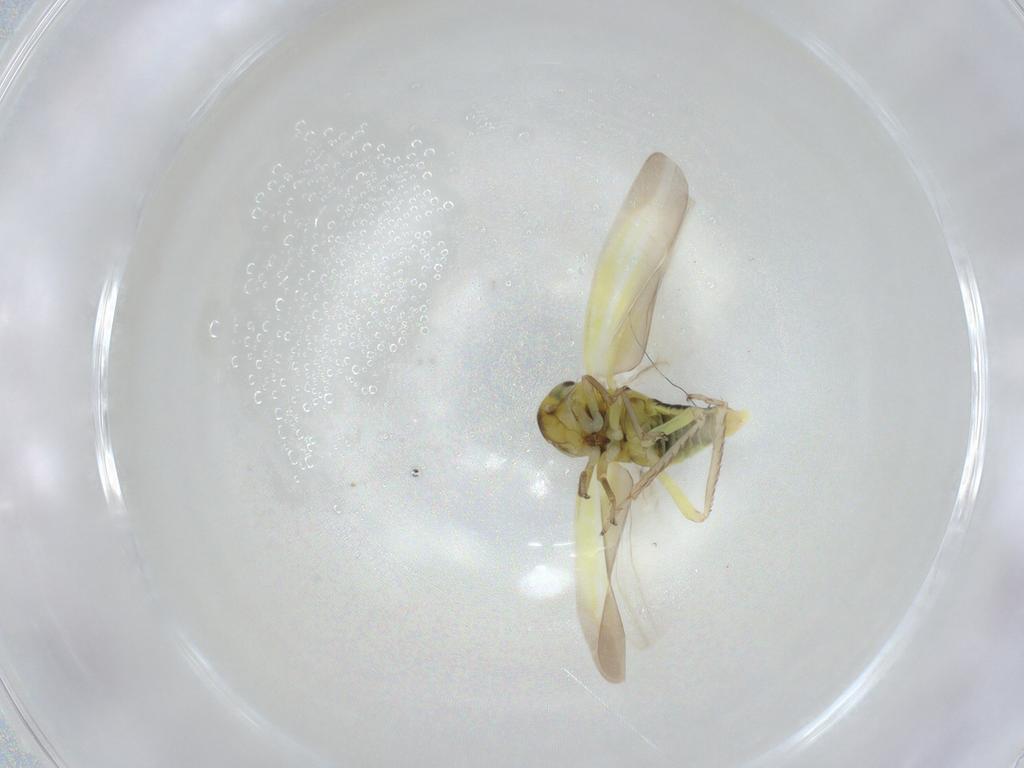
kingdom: Animalia
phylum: Arthropoda
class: Insecta
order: Hemiptera
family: Cicadellidae
